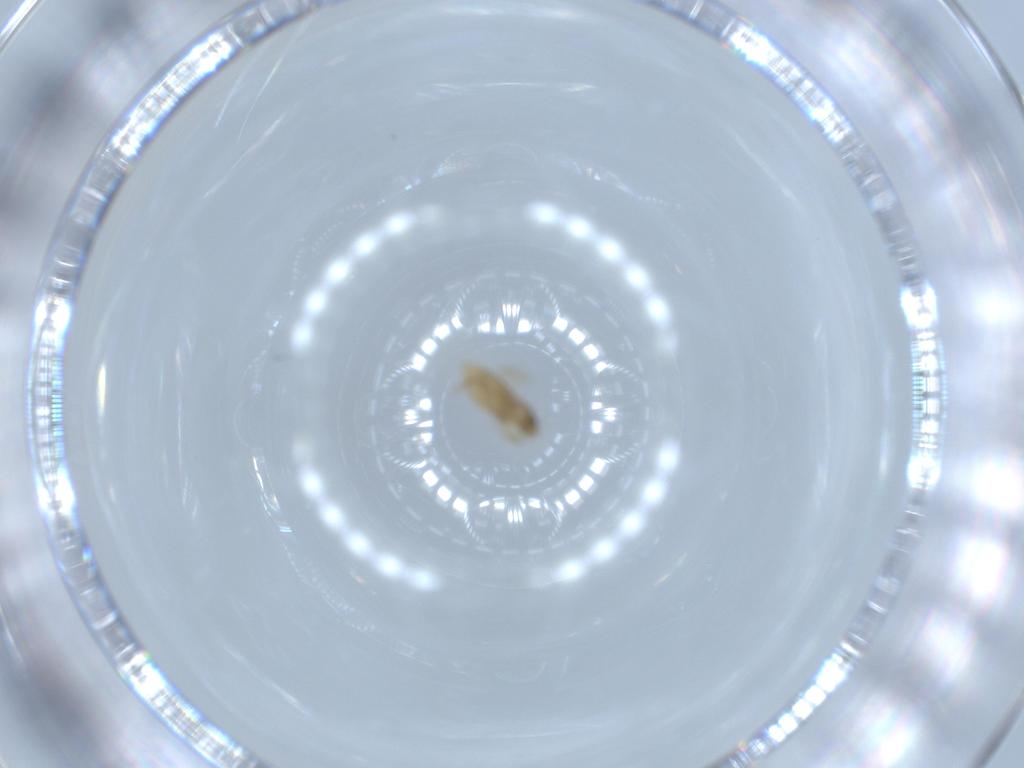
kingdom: Animalia
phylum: Arthropoda
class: Insecta
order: Diptera
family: Phoridae
